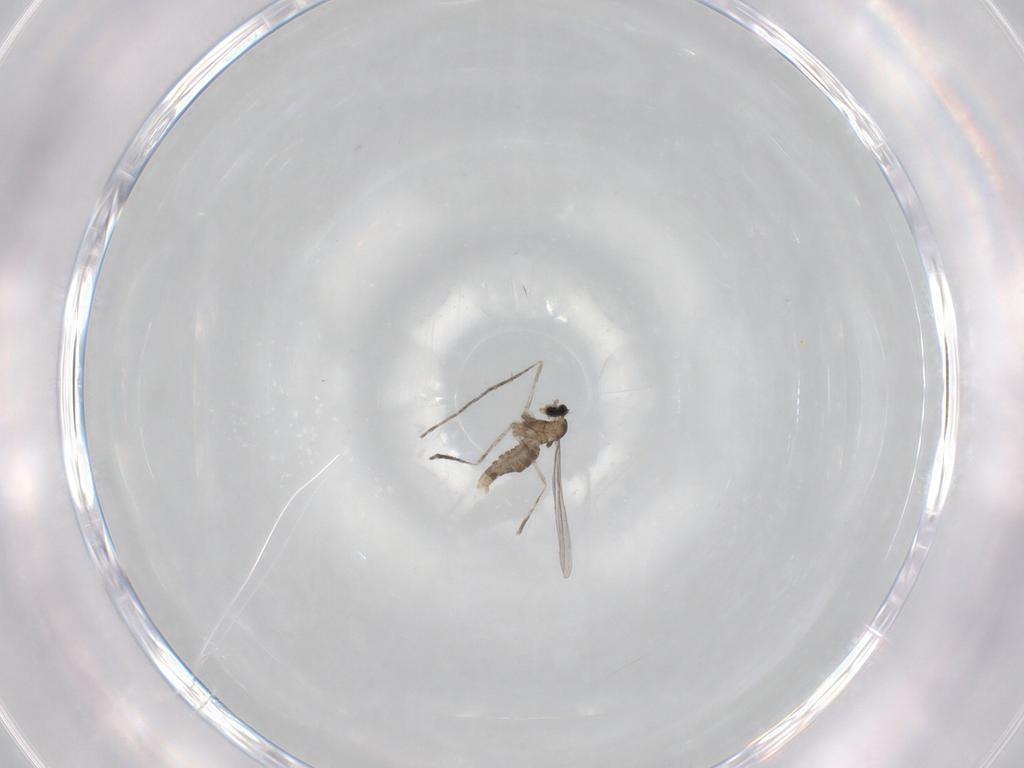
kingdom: Animalia
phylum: Arthropoda
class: Insecta
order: Diptera
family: Cecidomyiidae
